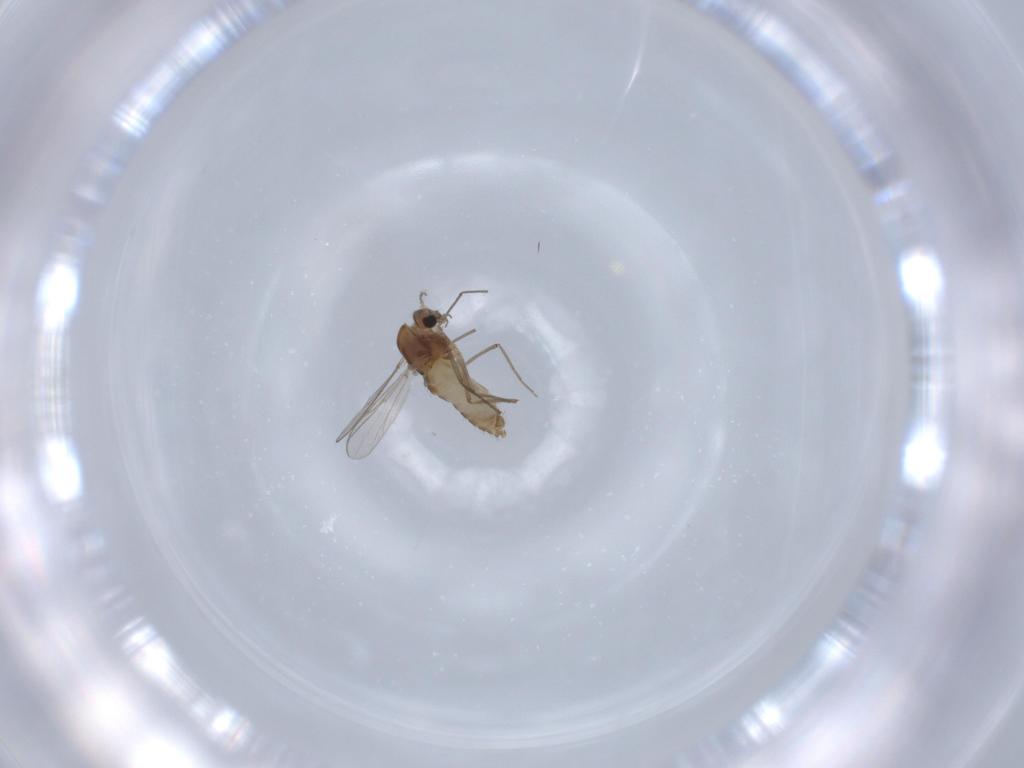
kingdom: Animalia
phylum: Arthropoda
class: Insecta
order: Diptera
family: Chironomidae
